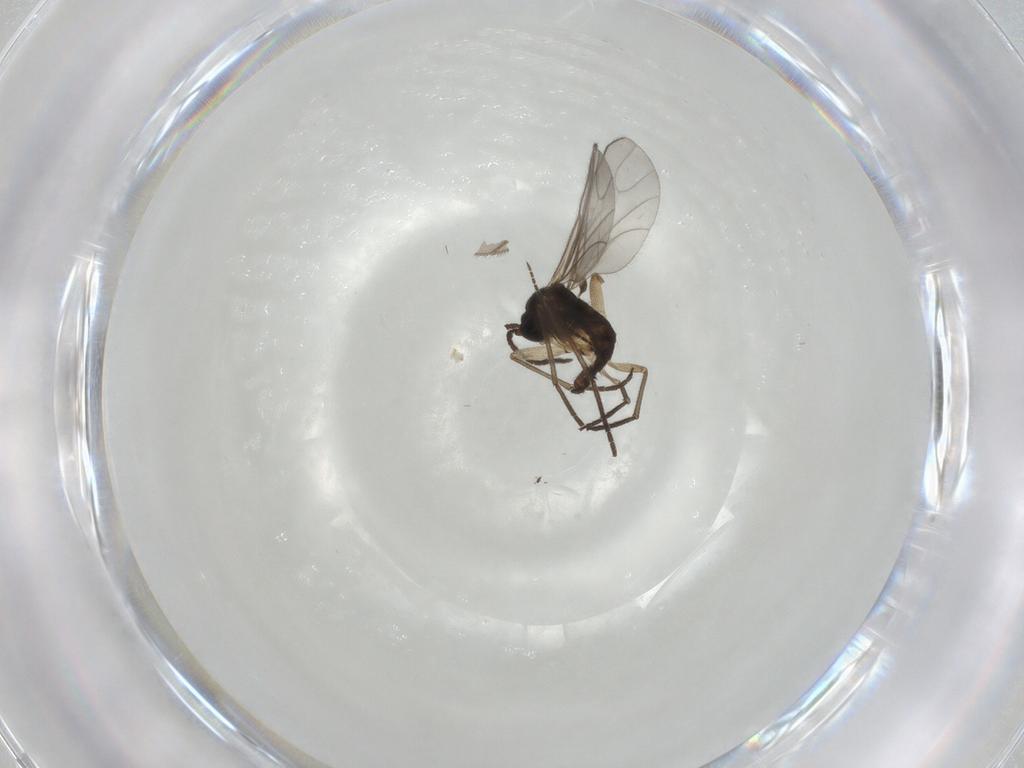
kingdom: Animalia
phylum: Arthropoda
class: Insecta
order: Diptera
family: Sciaridae
